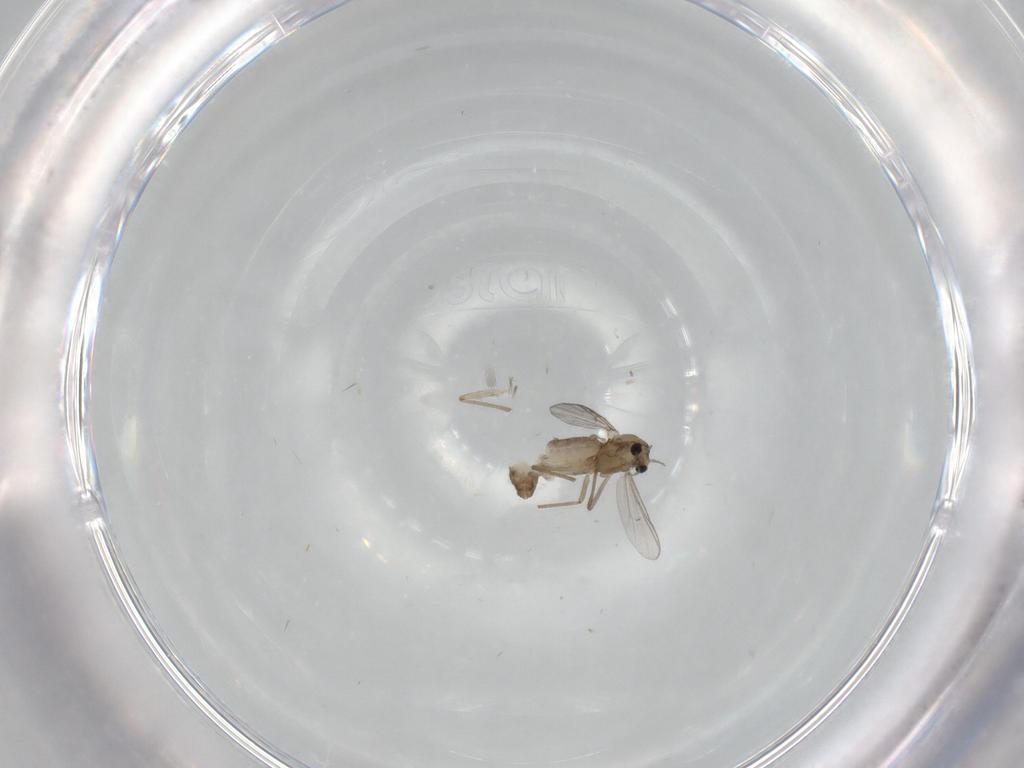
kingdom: Animalia
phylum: Arthropoda
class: Insecta
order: Diptera
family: Chironomidae
